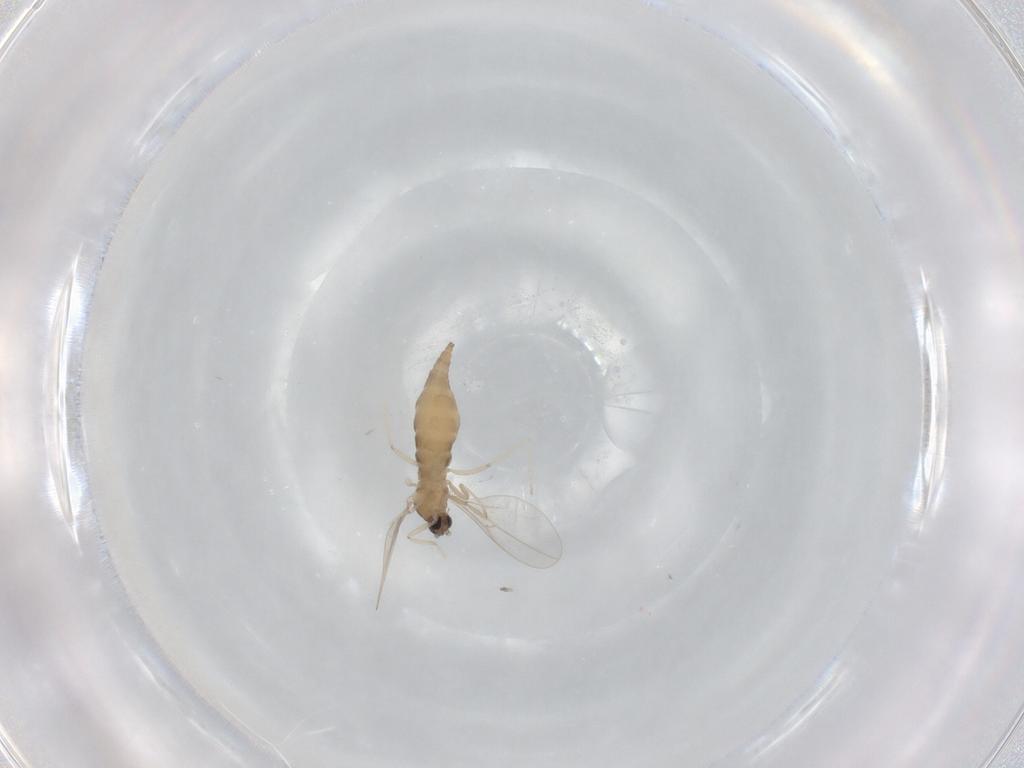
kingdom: Animalia
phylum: Arthropoda
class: Insecta
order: Diptera
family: Cecidomyiidae
